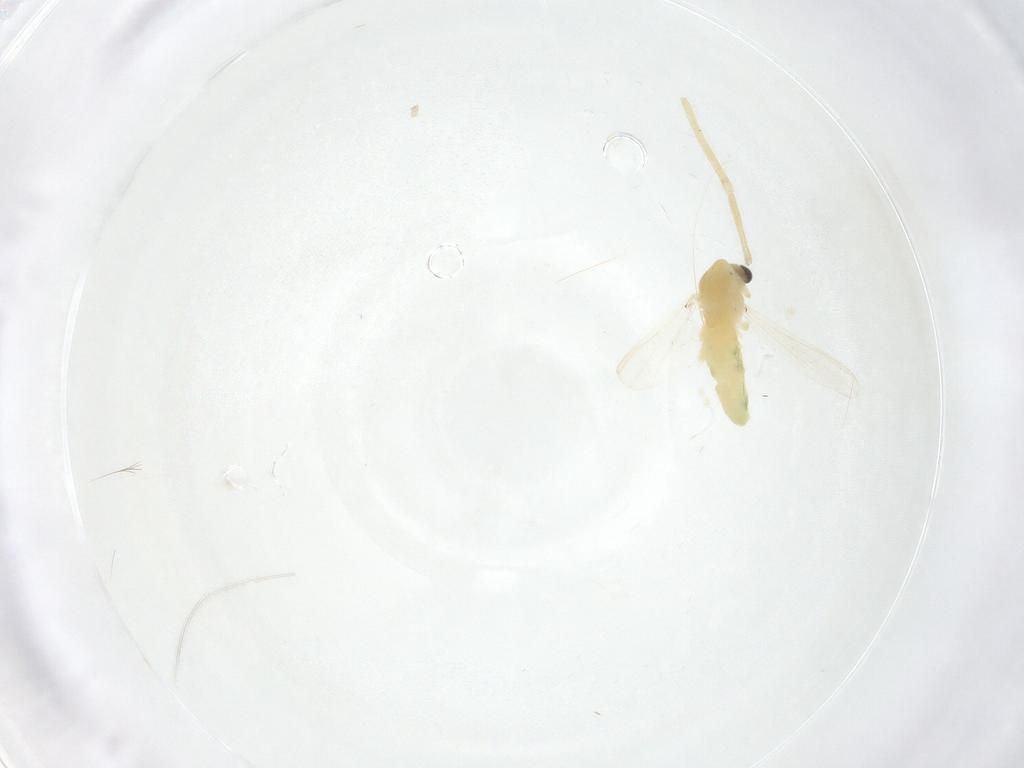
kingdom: Animalia
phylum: Arthropoda
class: Insecta
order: Diptera
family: Chironomidae
